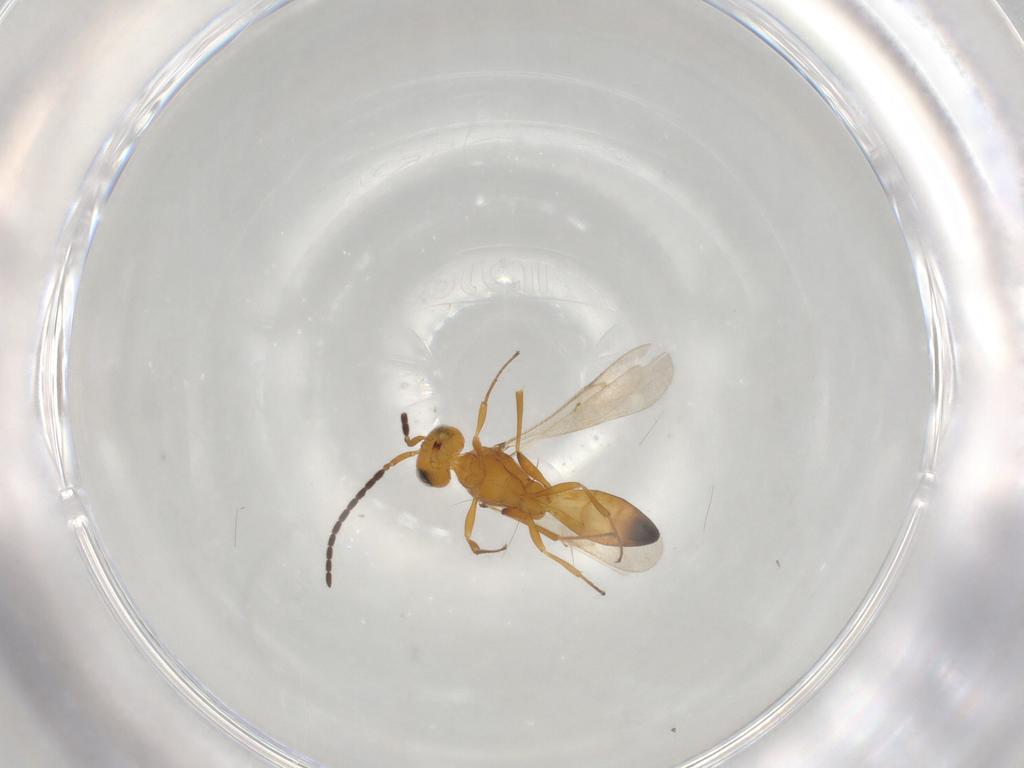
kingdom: Animalia
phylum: Arthropoda
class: Insecta
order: Hymenoptera
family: Scelionidae
